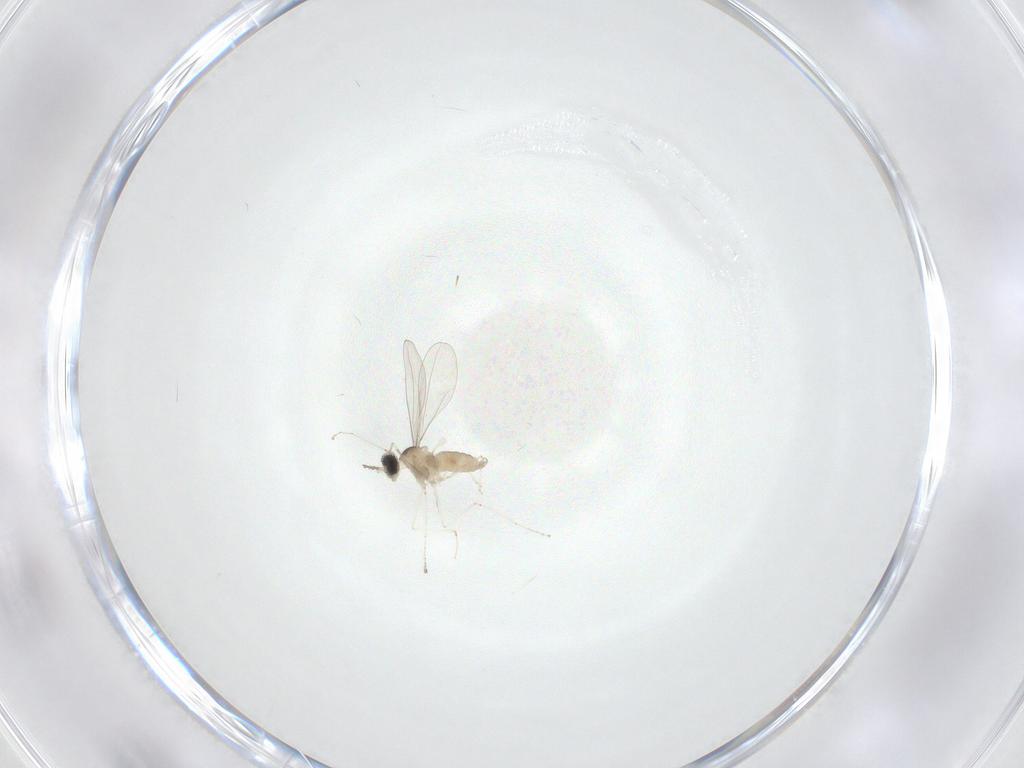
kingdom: Animalia
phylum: Arthropoda
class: Insecta
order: Diptera
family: Cecidomyiidae
